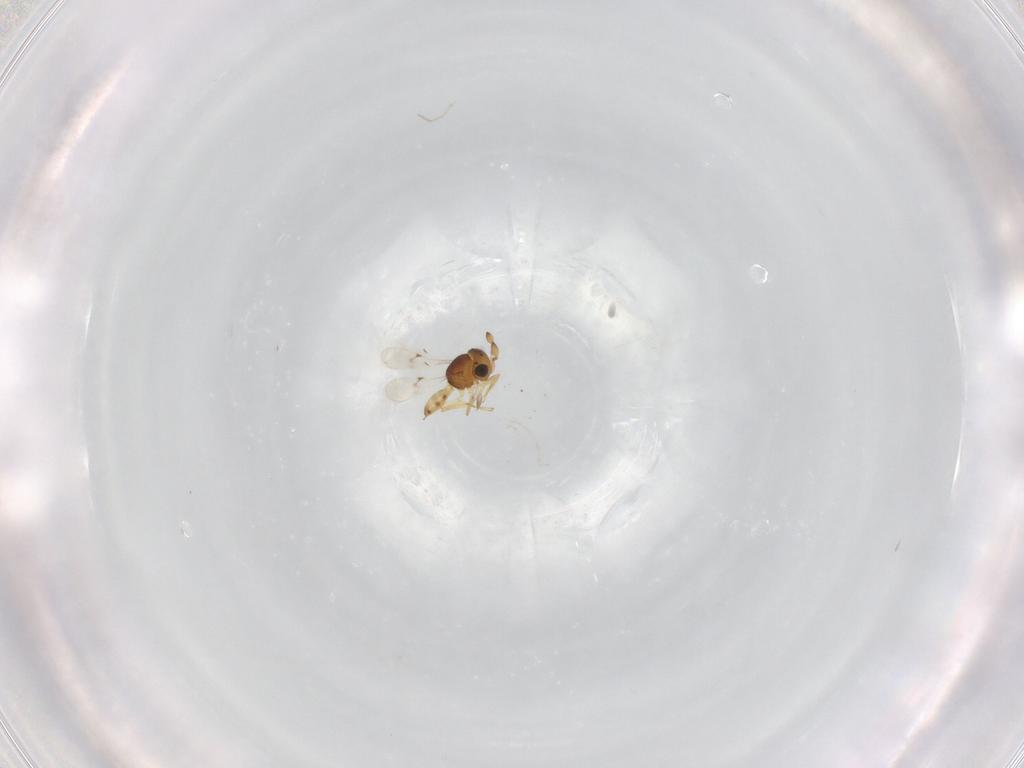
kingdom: Animalia
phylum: Arthropoda
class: Insecta
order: Hymenoptera
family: Scelionidae
